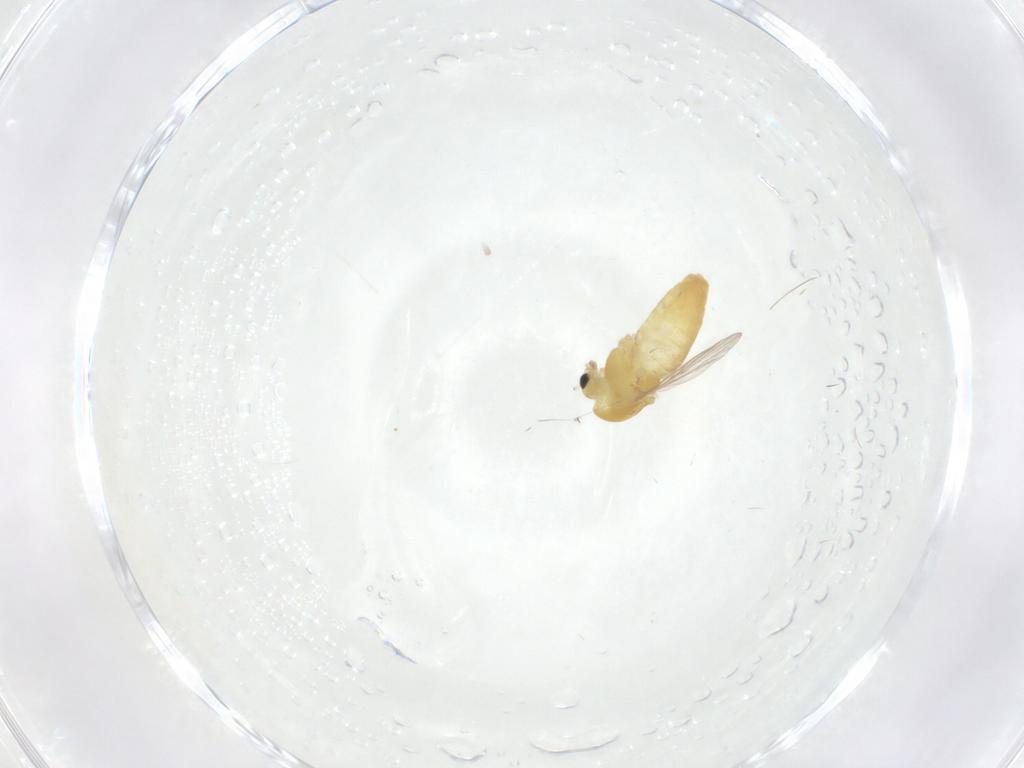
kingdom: Animalia
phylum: Arthropoda
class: Insecta
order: Diptera
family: Chironomidae
